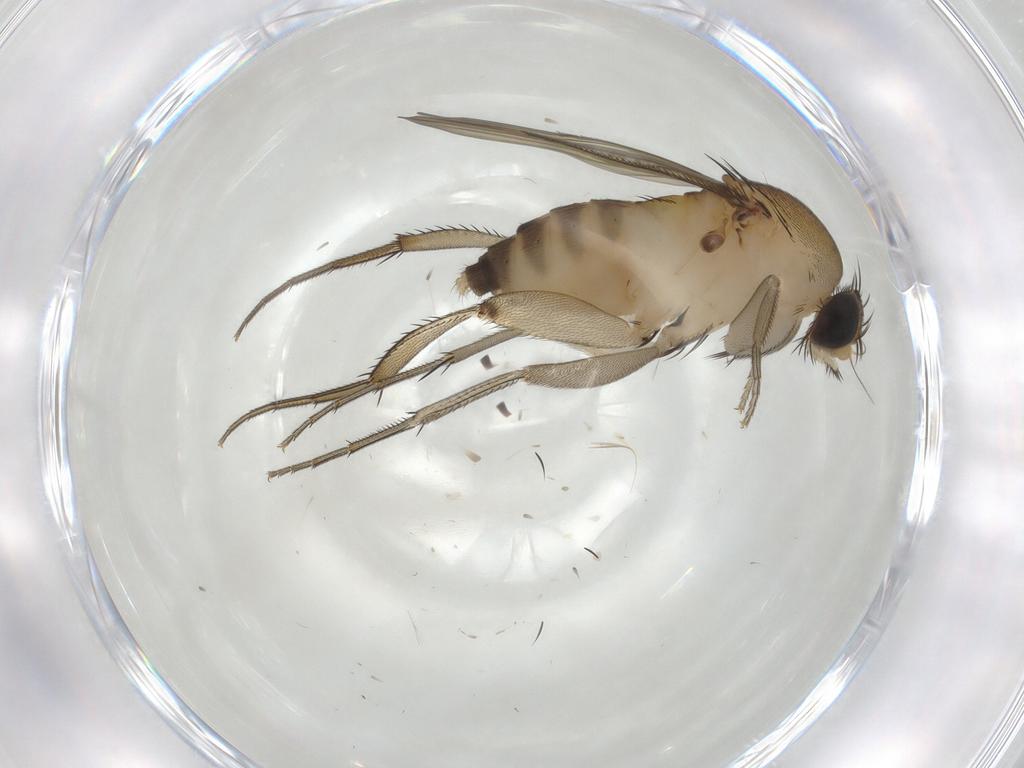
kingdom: Animalia
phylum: Arthropoda
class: Insecta
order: Diptera
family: Phoridae
